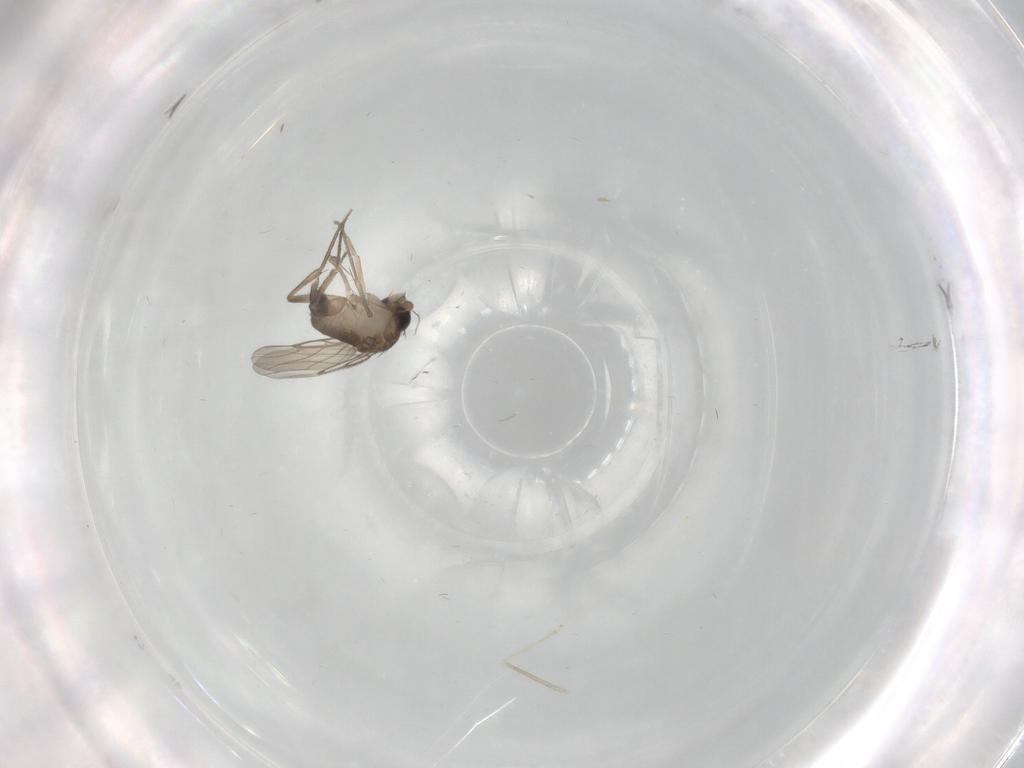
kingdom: Animalia
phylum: Arthropoda
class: Insecta
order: Diptera
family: Phoridae
